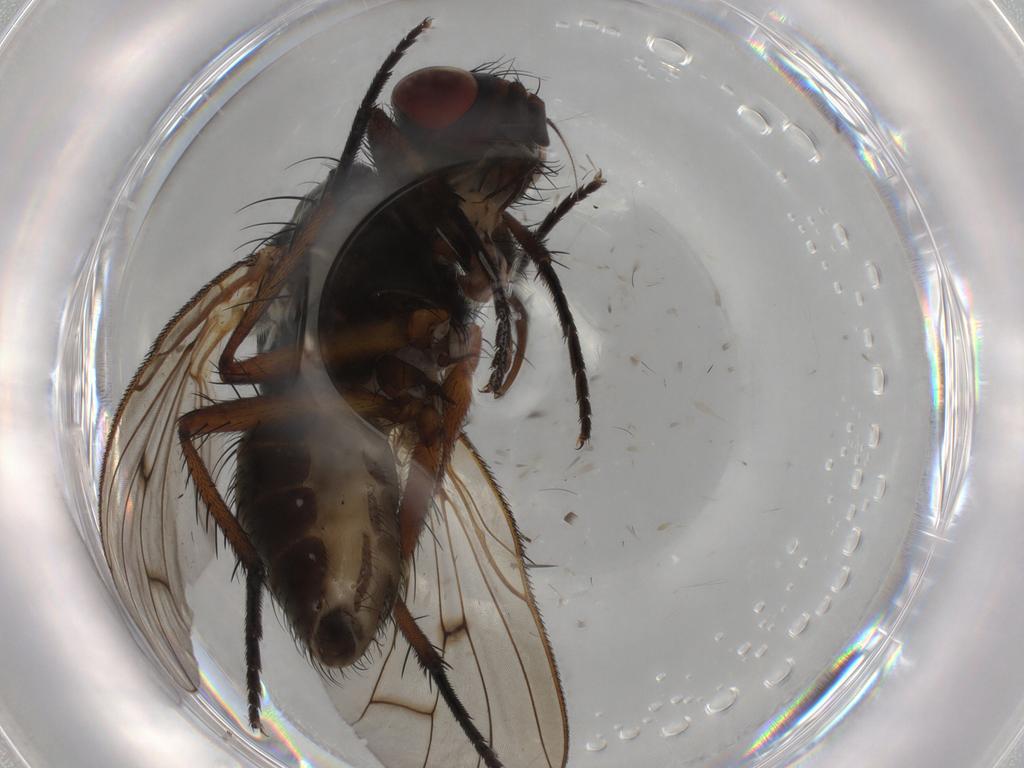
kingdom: Animalia
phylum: Arthropoda
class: Insecta
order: Diptera
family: Anthomyiidae
